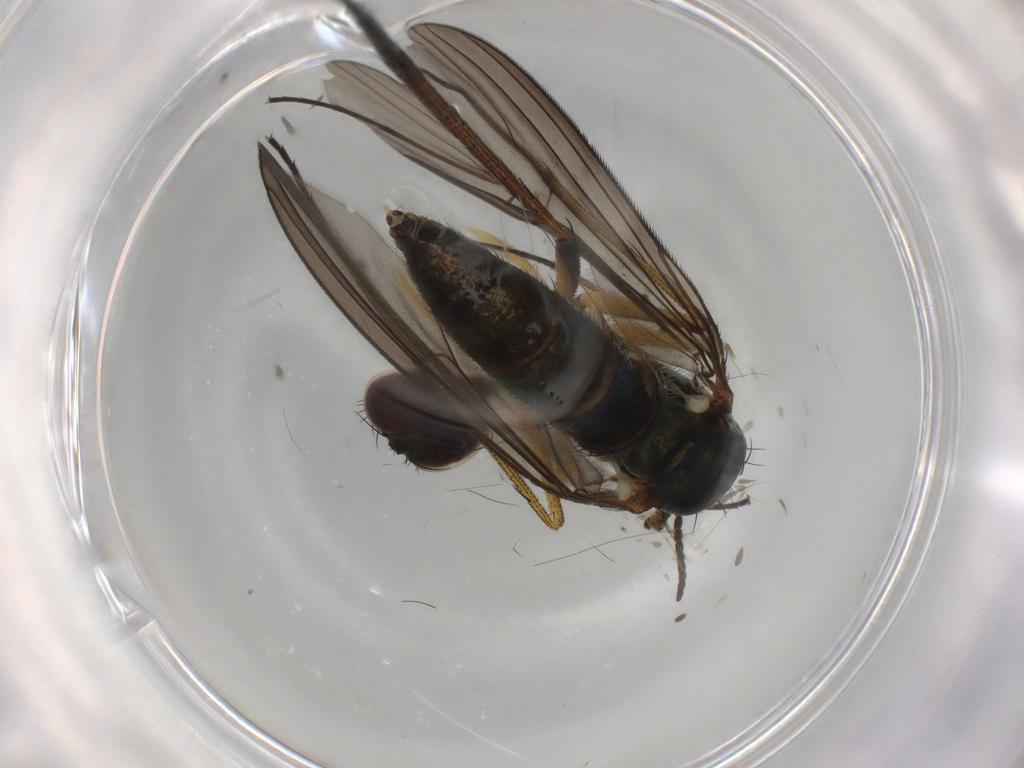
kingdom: Animalia
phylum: Arthropoda
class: Insecta
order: Diptera
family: Dolichopodidae
